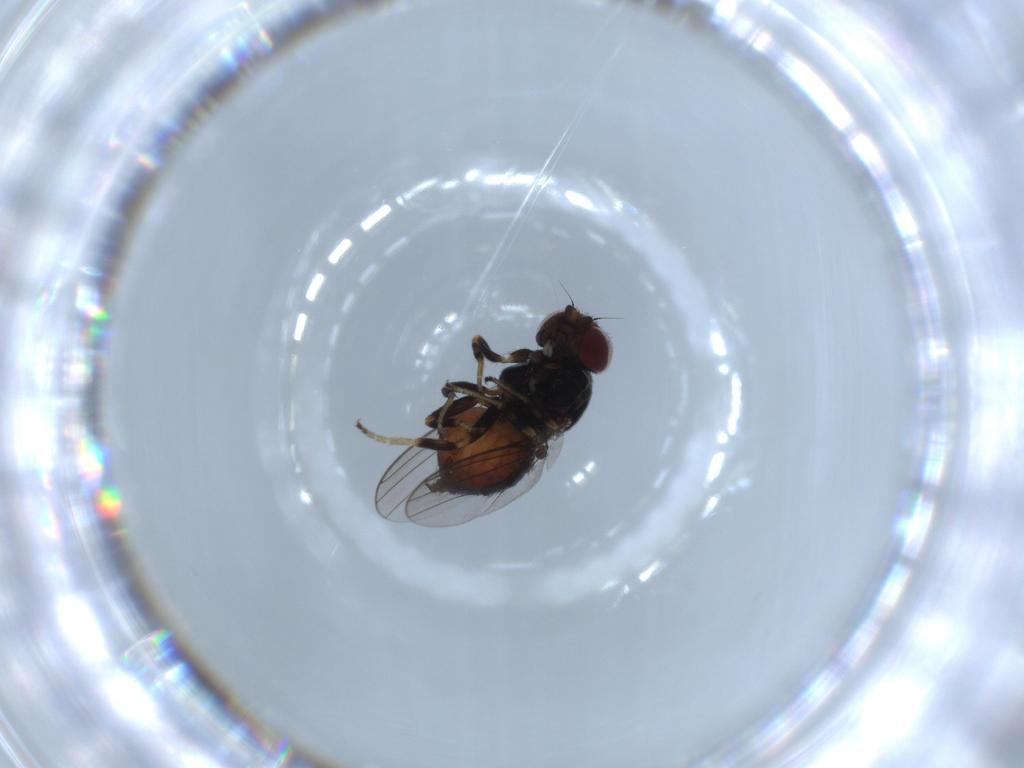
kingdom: Animalia
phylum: Arthropoda
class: Insecta
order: Diptera
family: Chloropidae
